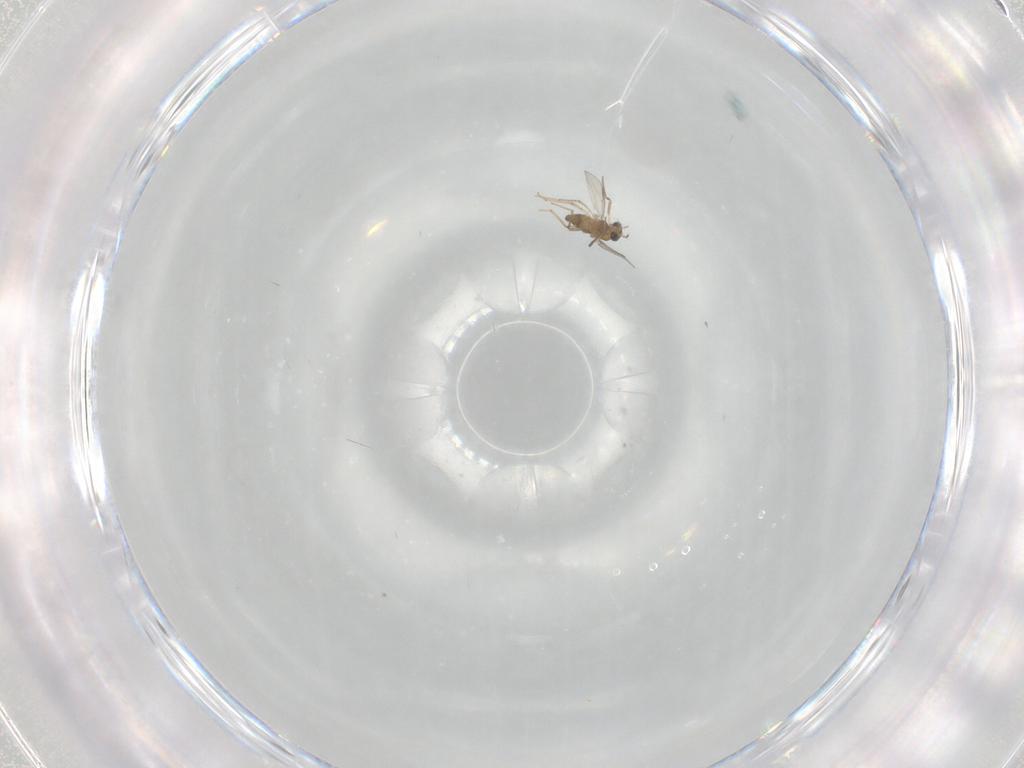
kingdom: Animalia
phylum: Arthropoda
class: Insecta
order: Diptera
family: Chironomidae
